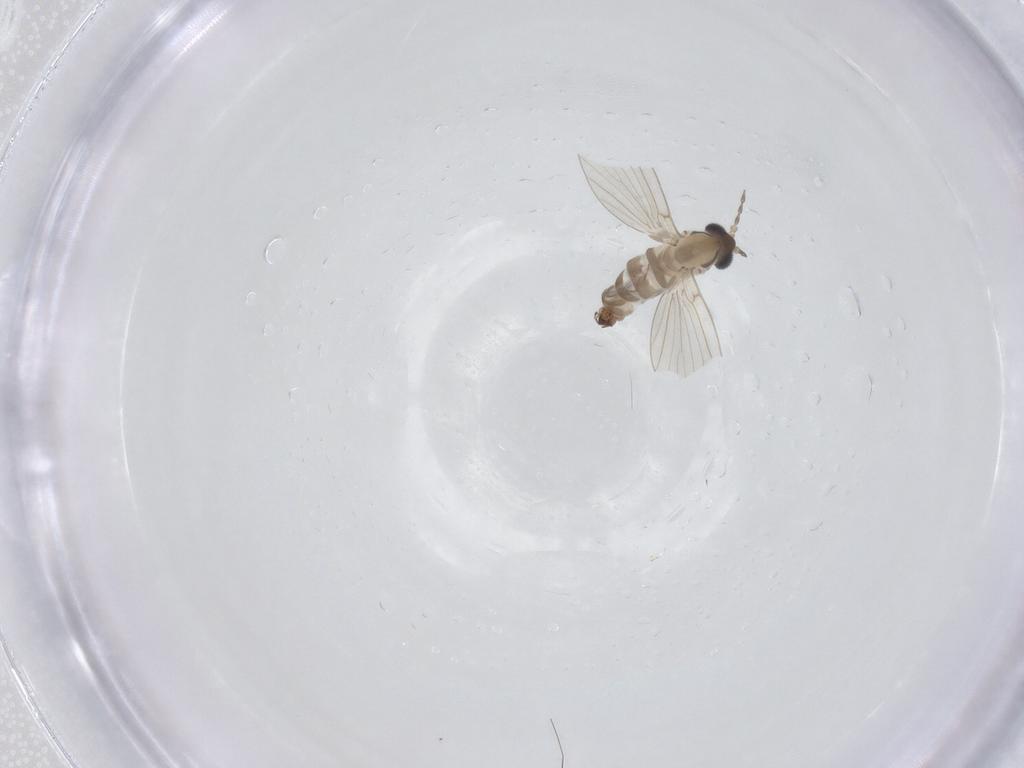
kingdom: Animalia
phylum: Arthropoda
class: Insecta
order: Diptera
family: Psychodidae
